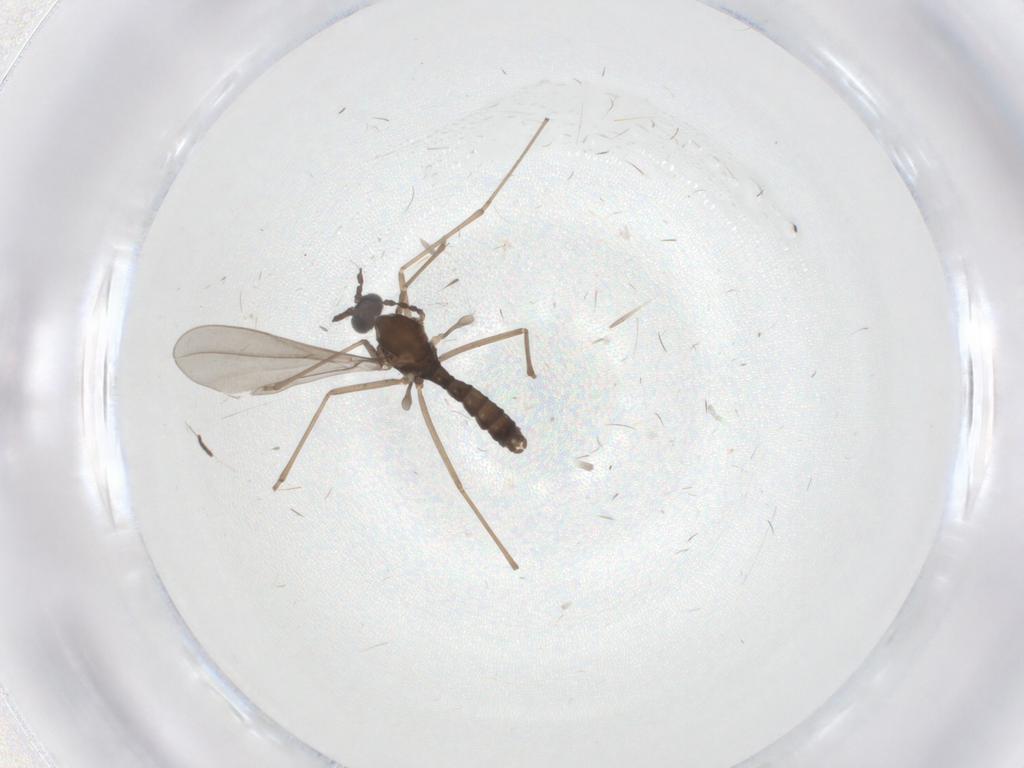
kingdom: Animalia
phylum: Arthropoda
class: Insecta
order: Diptera
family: Cecidomyiidae
